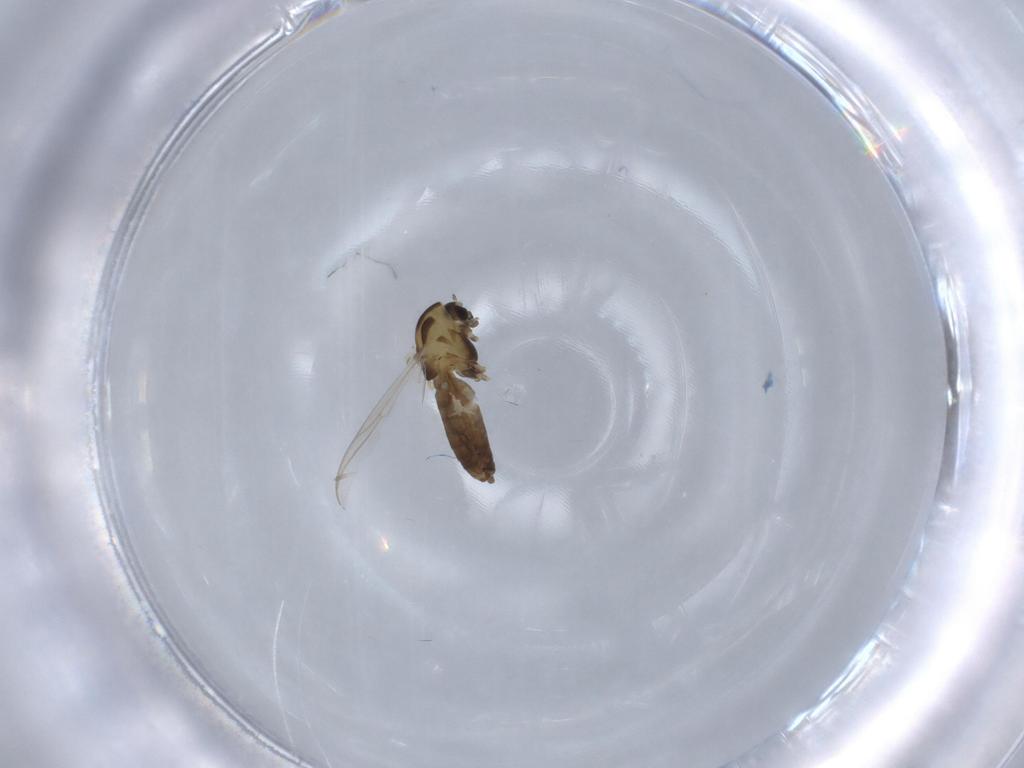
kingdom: Animalia
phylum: Arthropoda
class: Insecta
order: Diptera
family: Chironomidae
